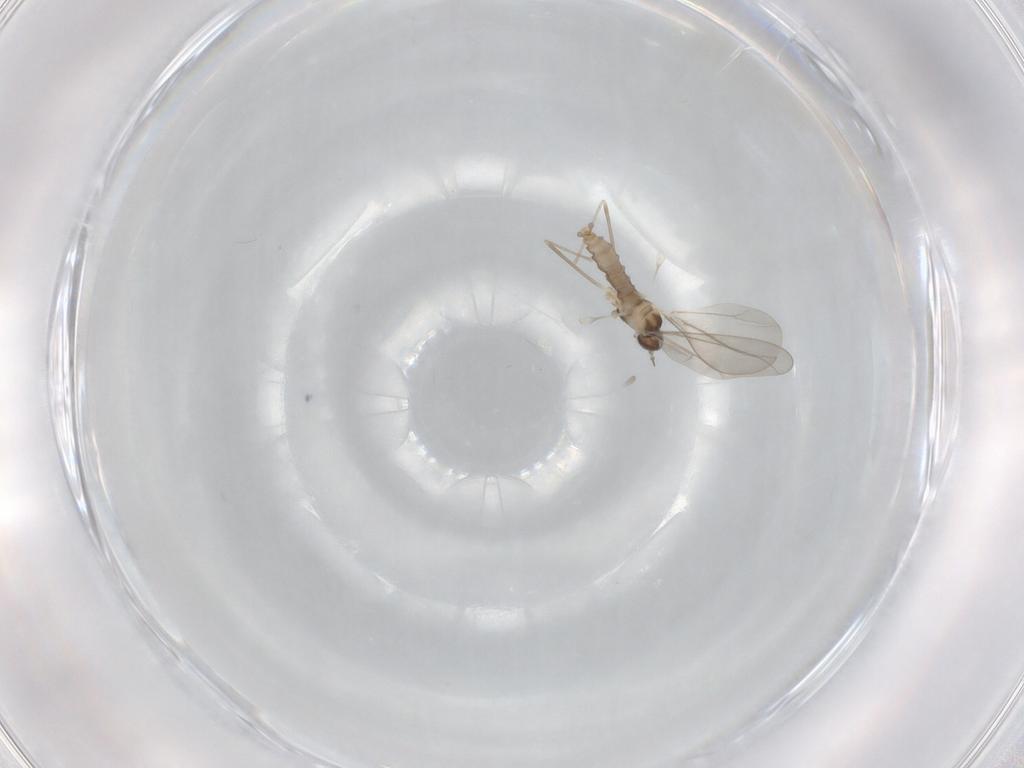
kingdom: Animalia
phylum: Arthropoda
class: Insecta
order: Diptera
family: Cecidomyiidae
